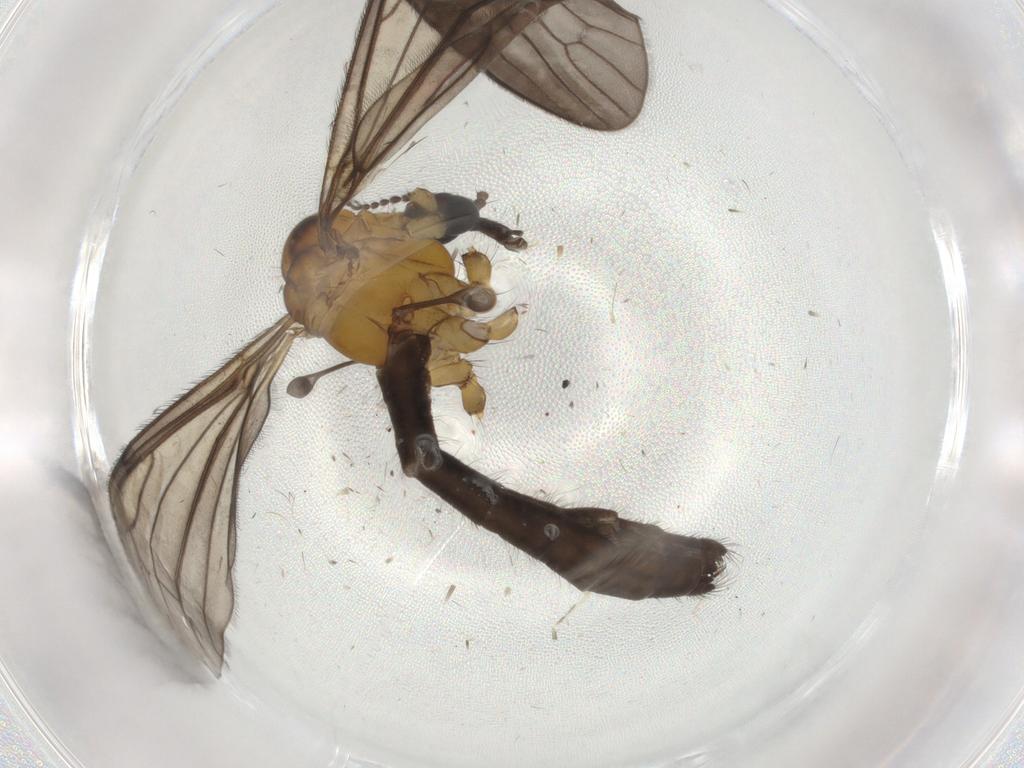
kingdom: Animalia
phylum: Arthropoda
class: Insecta
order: Diptera
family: Limoniidae
